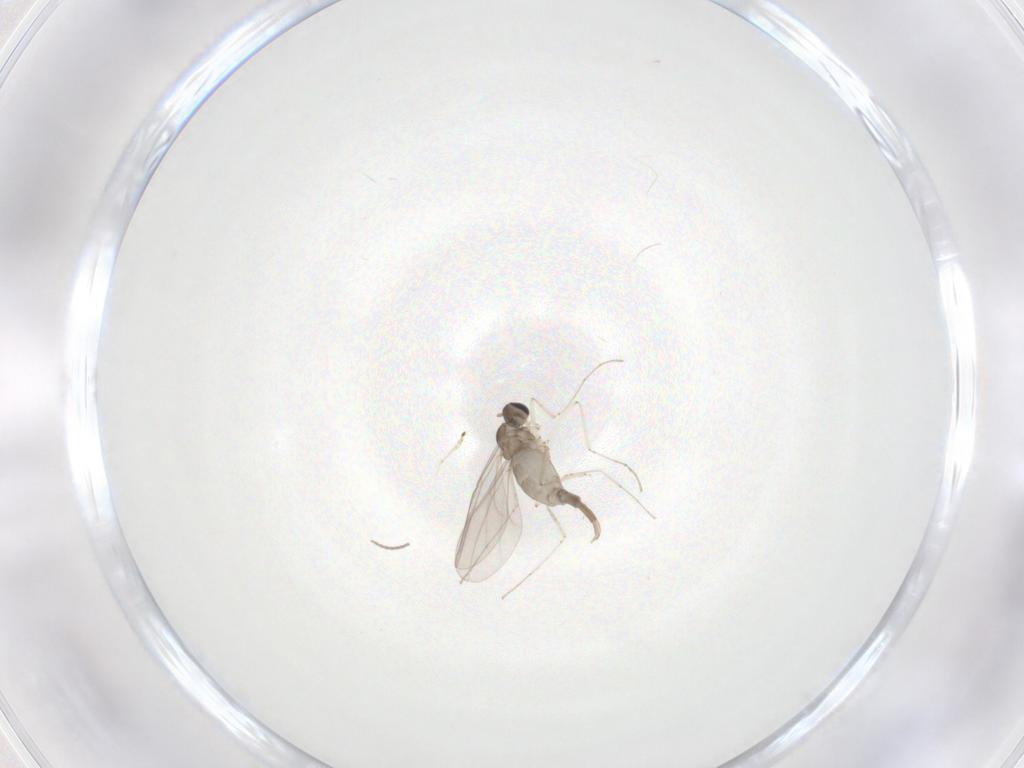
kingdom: Animalia
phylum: Arthropoda
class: Insecta
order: Diptera
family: Cecidomyiidae
